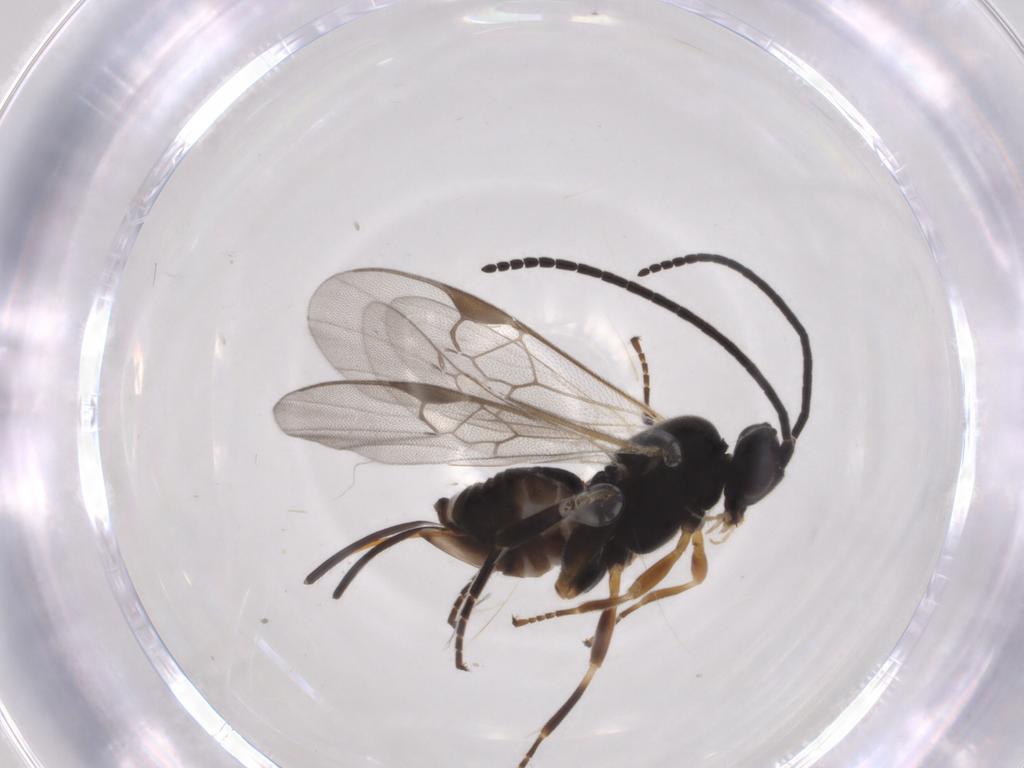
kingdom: Animalia
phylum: Arthropoda
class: Insecta
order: Hymenoptera
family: Braconidae
